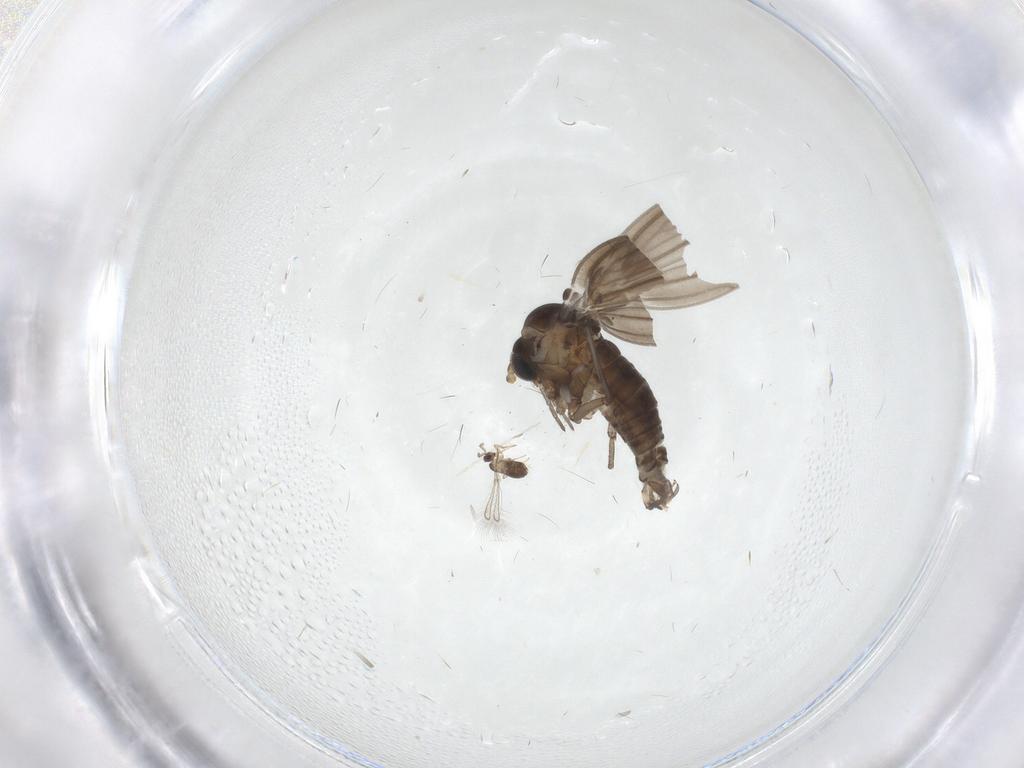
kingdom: Animalia
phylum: Arthropoda
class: Insecta
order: Diptera
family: Psychodidae
